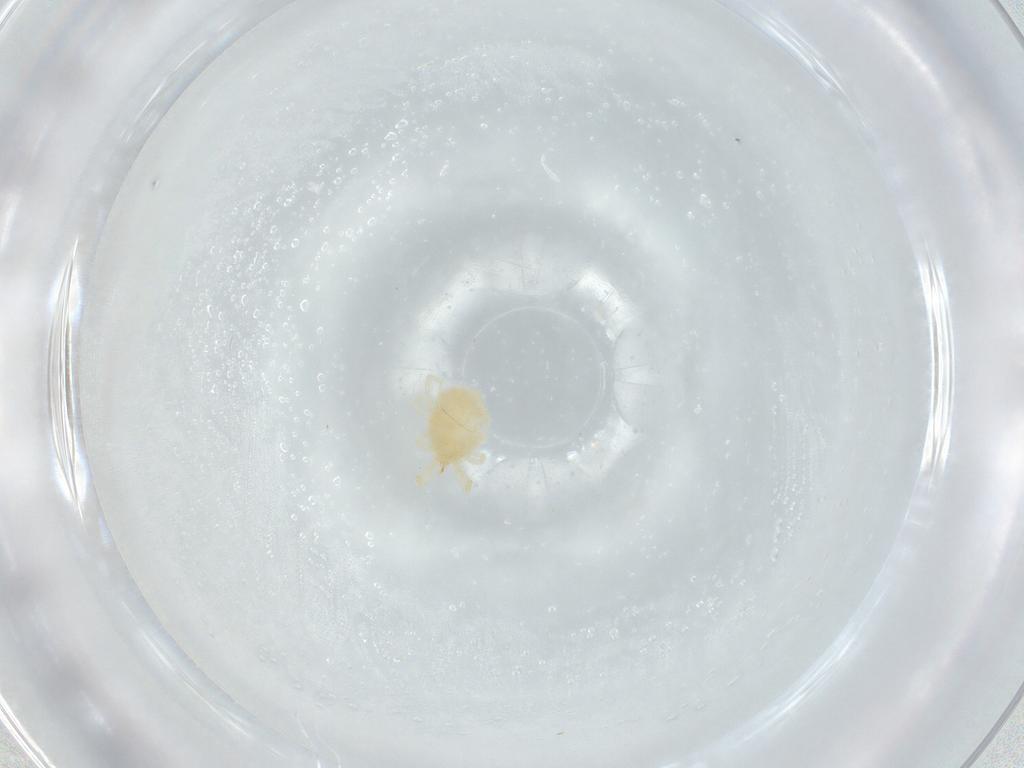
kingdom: Animalia
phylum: Arthropoda
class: Arachnida
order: Trombidiformes
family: Erythraeidae
